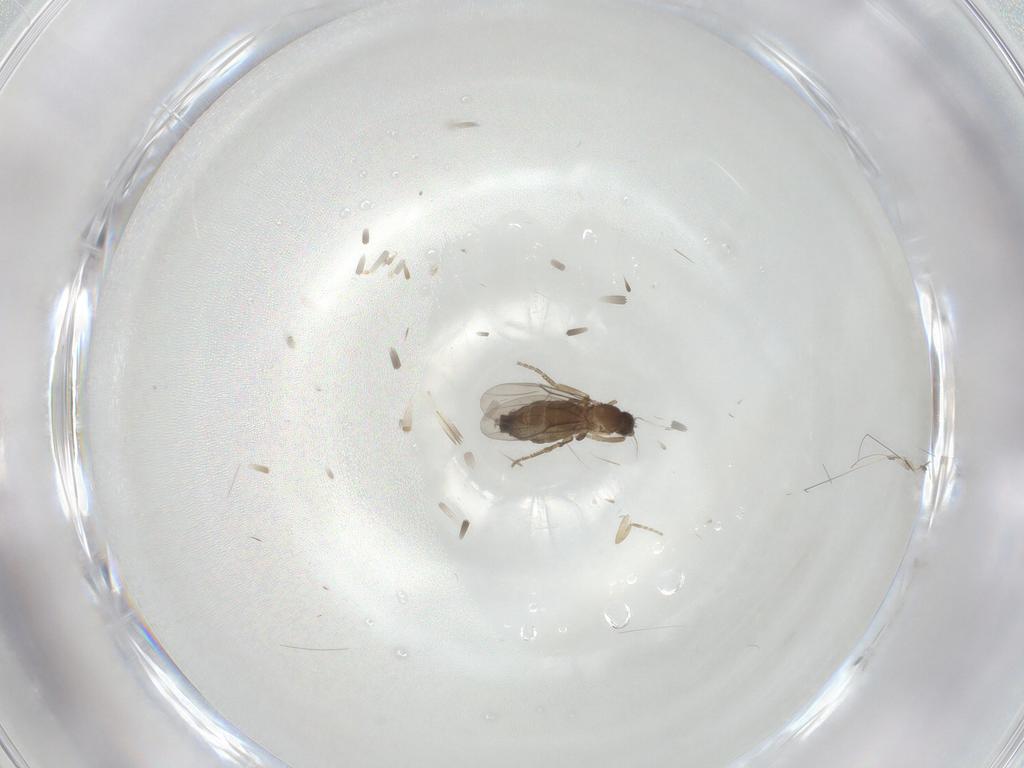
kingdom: Animalia
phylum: Arthropoda
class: Insecta
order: Diptera
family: Phoridae
